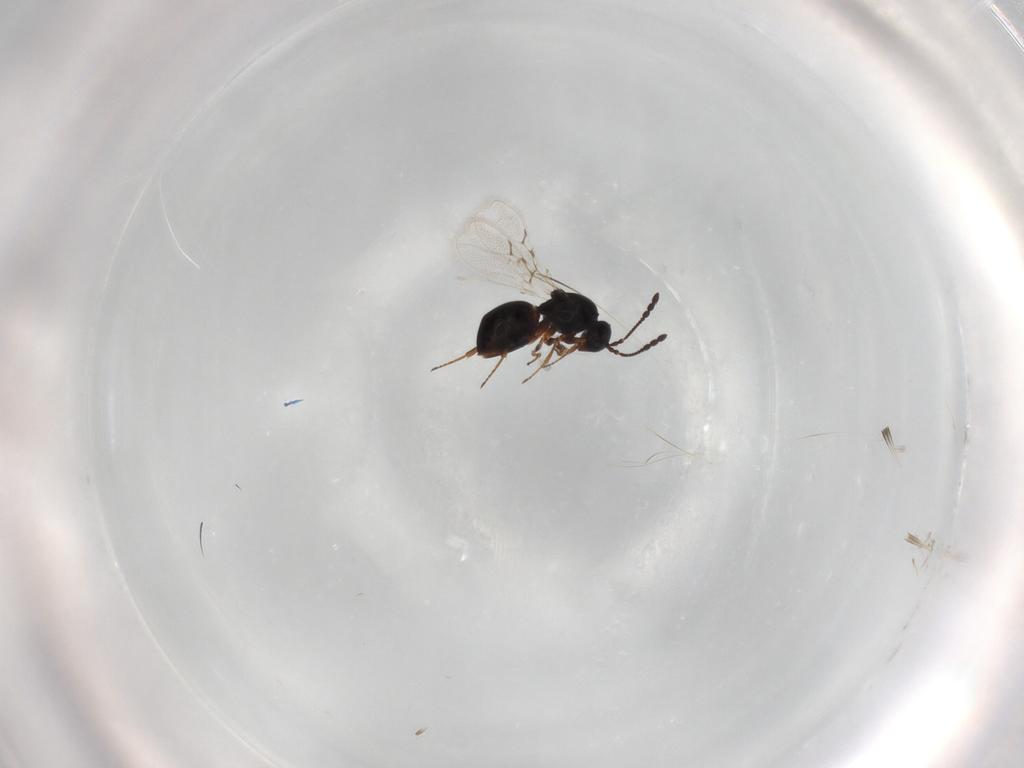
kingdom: Animalia
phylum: Arthropoda
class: Insecta
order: Hymenoptera
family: Figitidae
